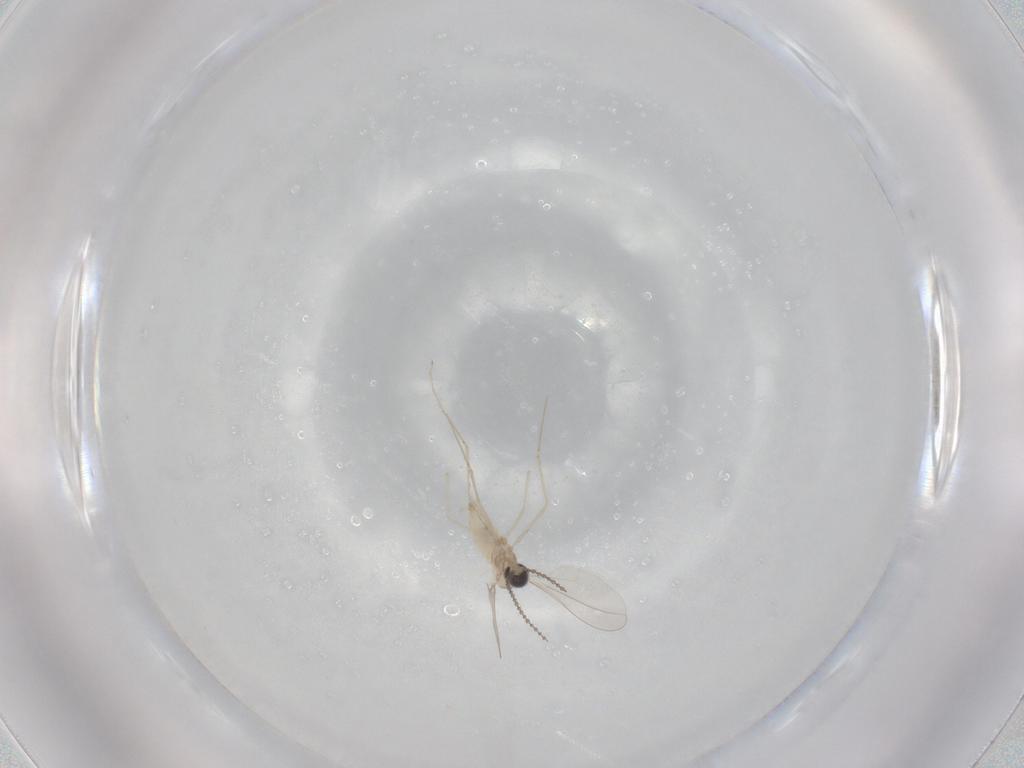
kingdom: Animalia
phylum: Arthropoda
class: Insecta
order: Diptera
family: Cecidomyiidae
